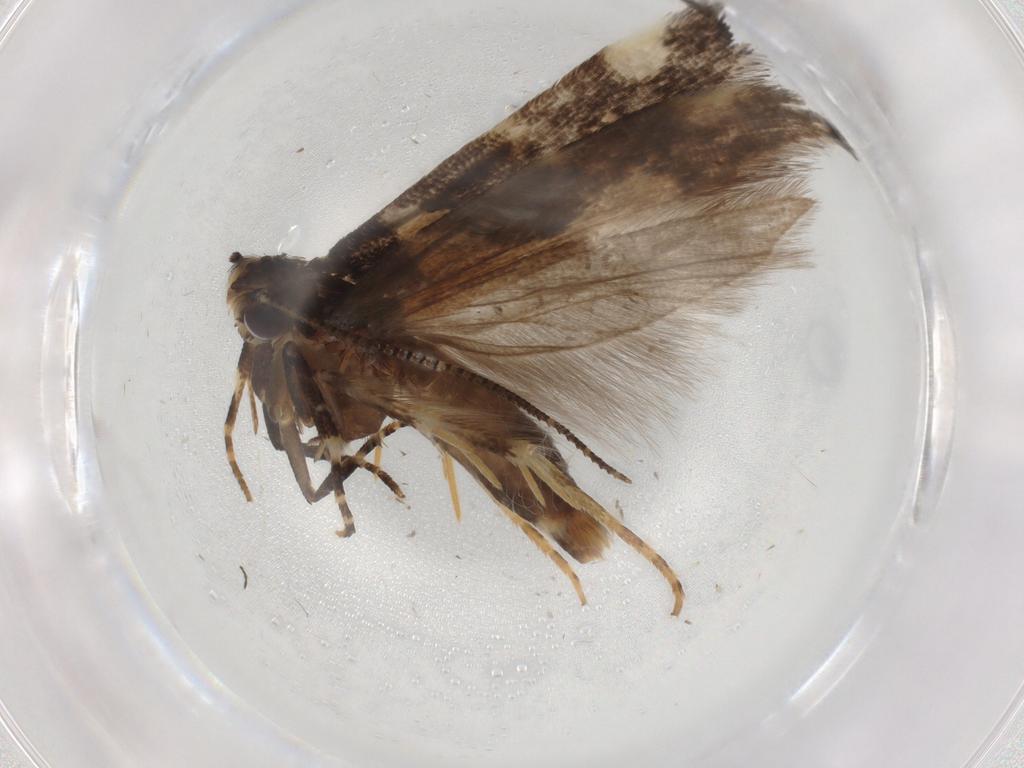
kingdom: Animalia
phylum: Arthropoda
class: Insecta
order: Lepidoptera
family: Gelechiidae
